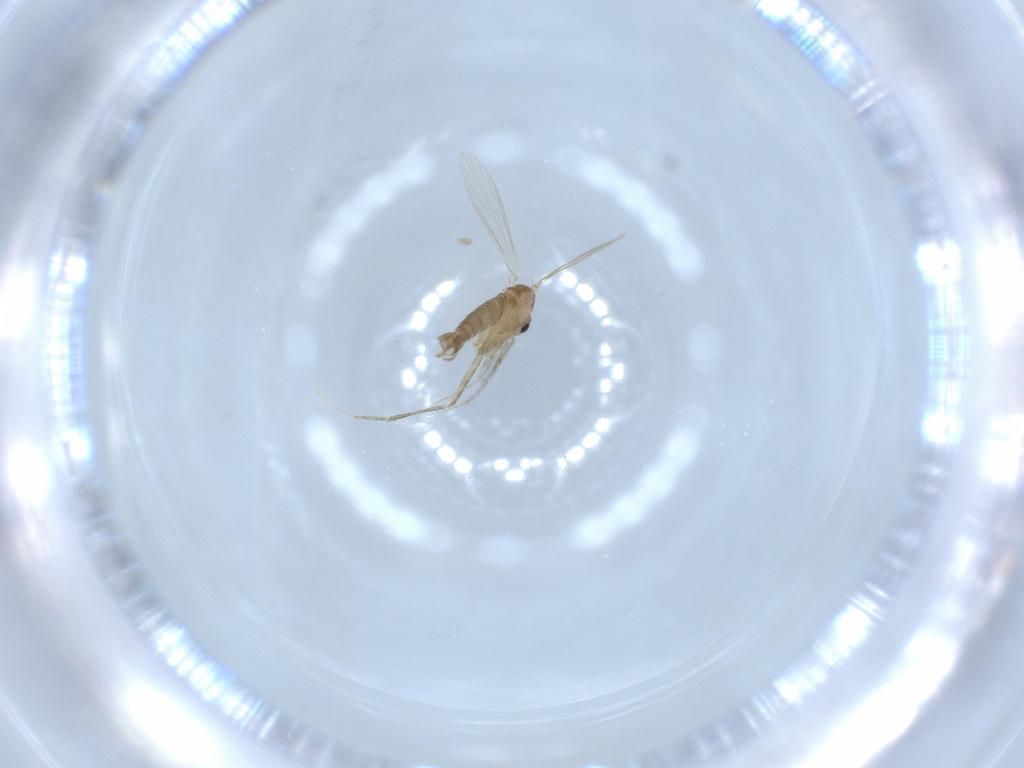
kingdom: Animalia
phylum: Arthropoda
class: Insecta
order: Diptera
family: Psychodidae
